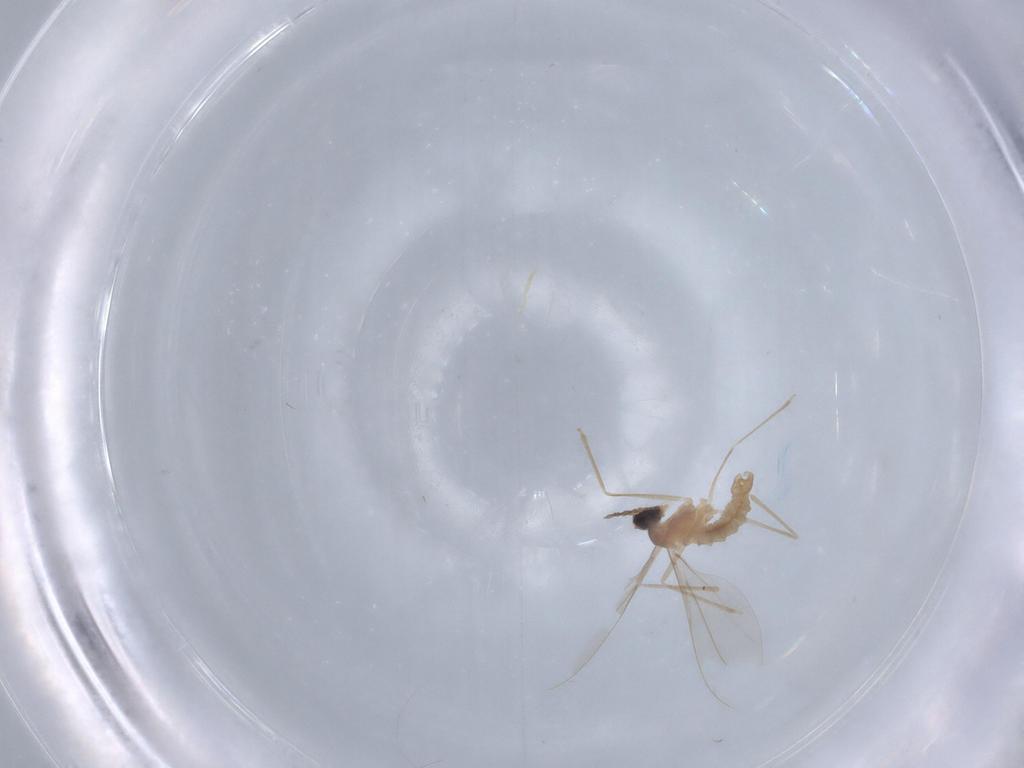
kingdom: Animalia
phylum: Arthropoda
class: Insecta
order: Diptera
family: Cecidomyiidae
